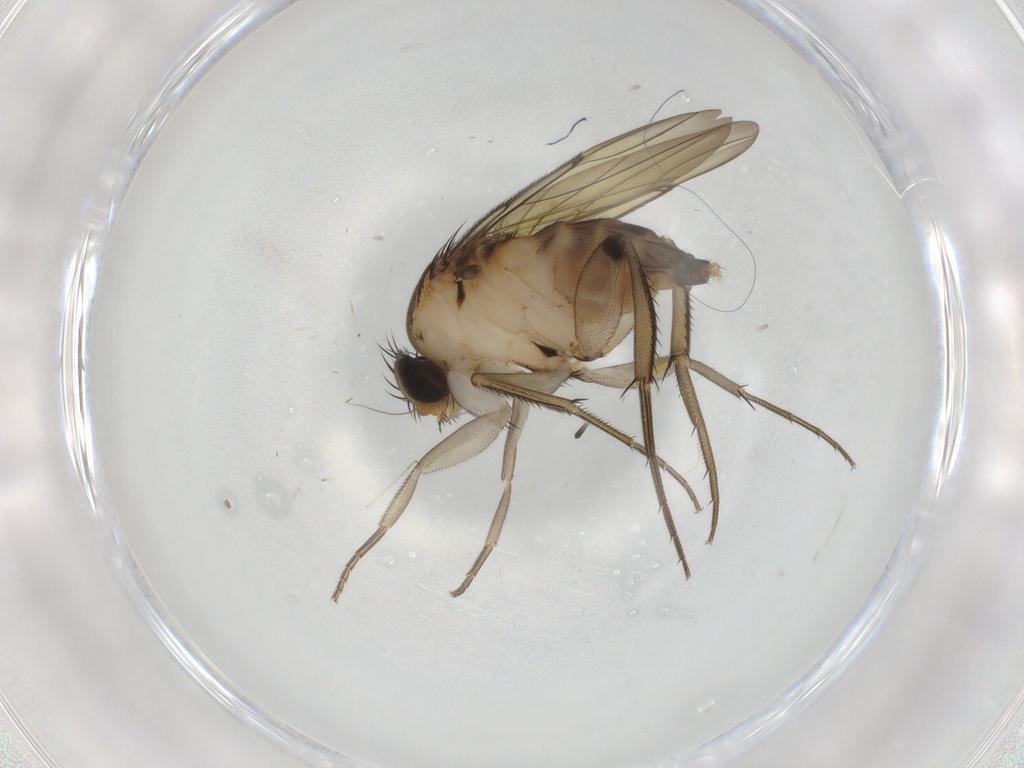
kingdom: Animalia
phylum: Arthropoda
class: Insecta
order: Diptera
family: Phoridae
